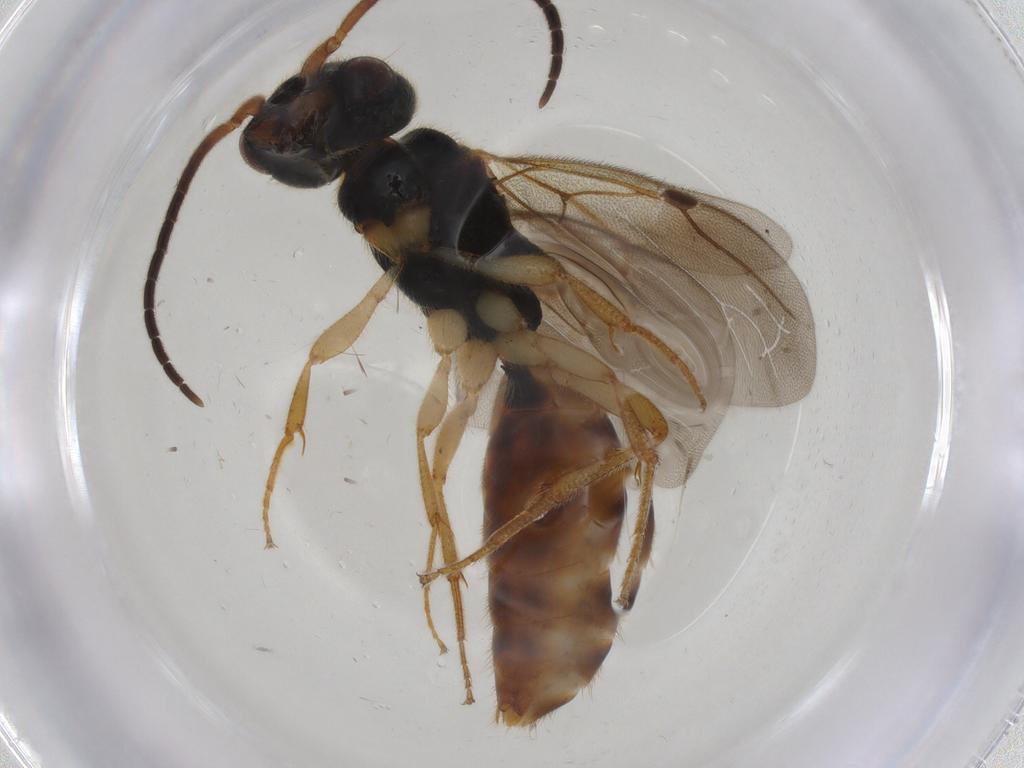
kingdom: Animalia
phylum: Arthropoda
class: Insecta
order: Hymenoptera
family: Bethylidae
